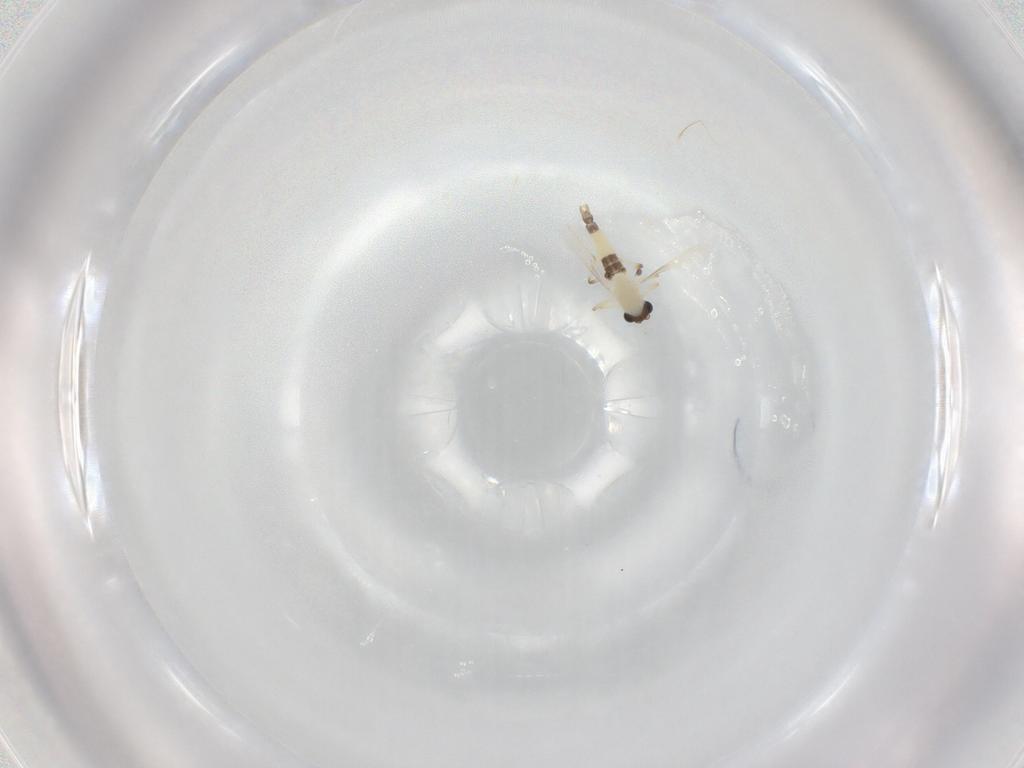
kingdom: Animalia
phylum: Arthropoda
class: Insecta
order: Diptera
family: Chironomidae
